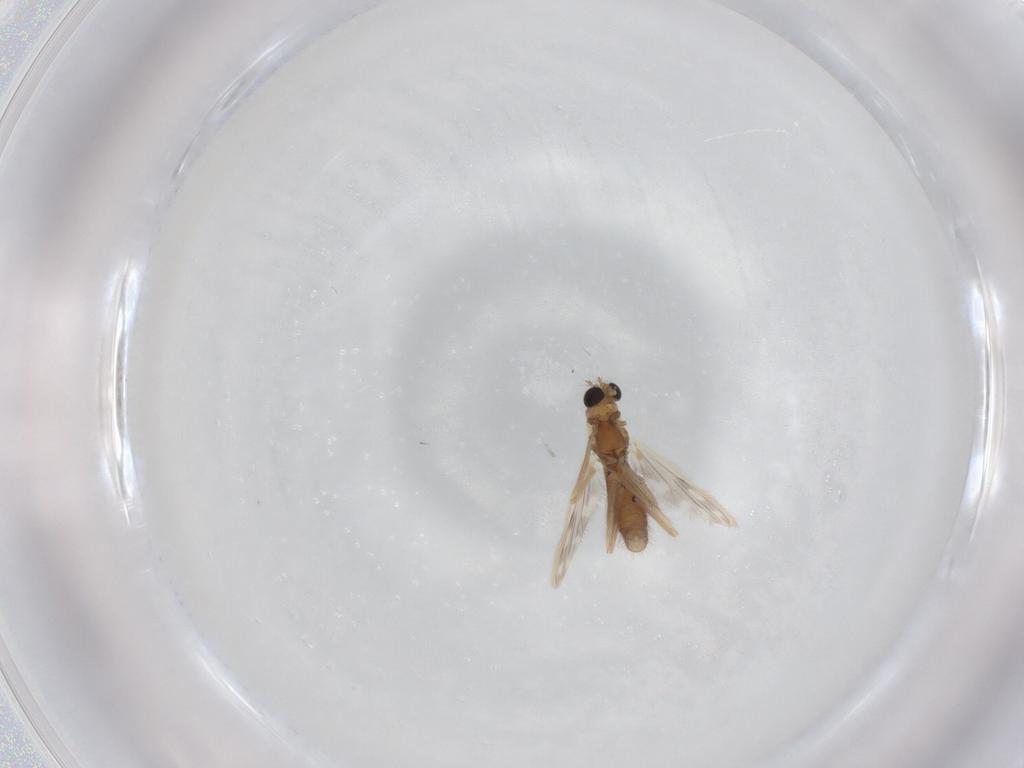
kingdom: Animalia
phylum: Arthropoda
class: Insecta
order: Diptera
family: Chironomidae
